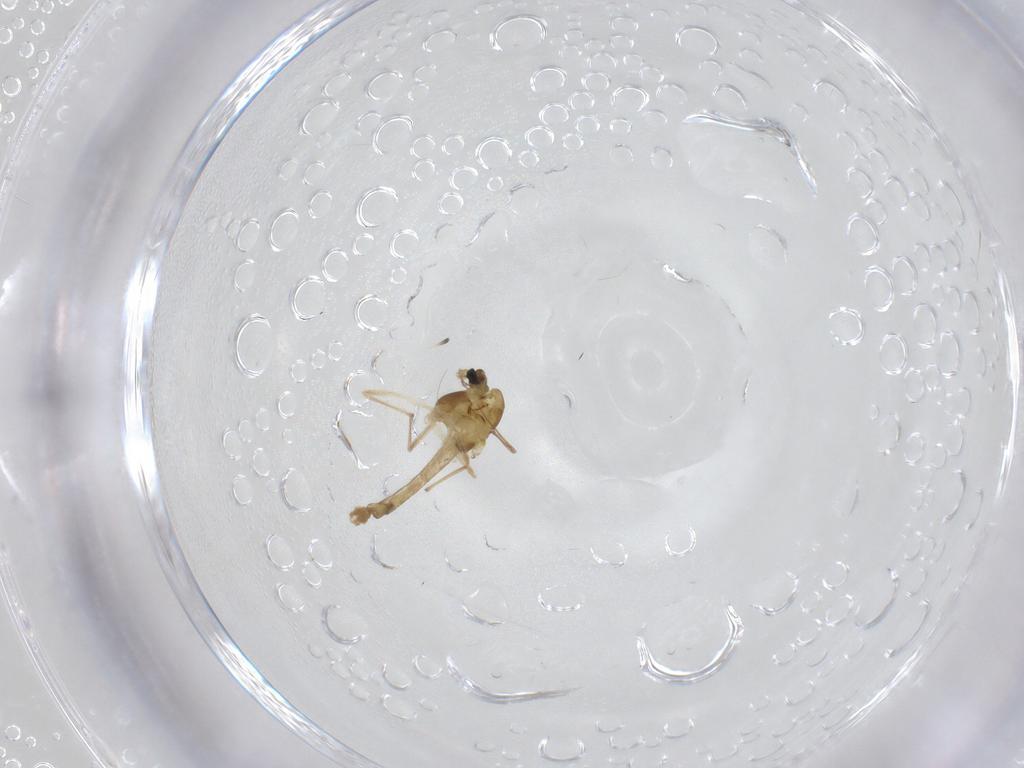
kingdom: Animalia
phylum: Arthropoda
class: Insecta
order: Diptera
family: Chironomidae
